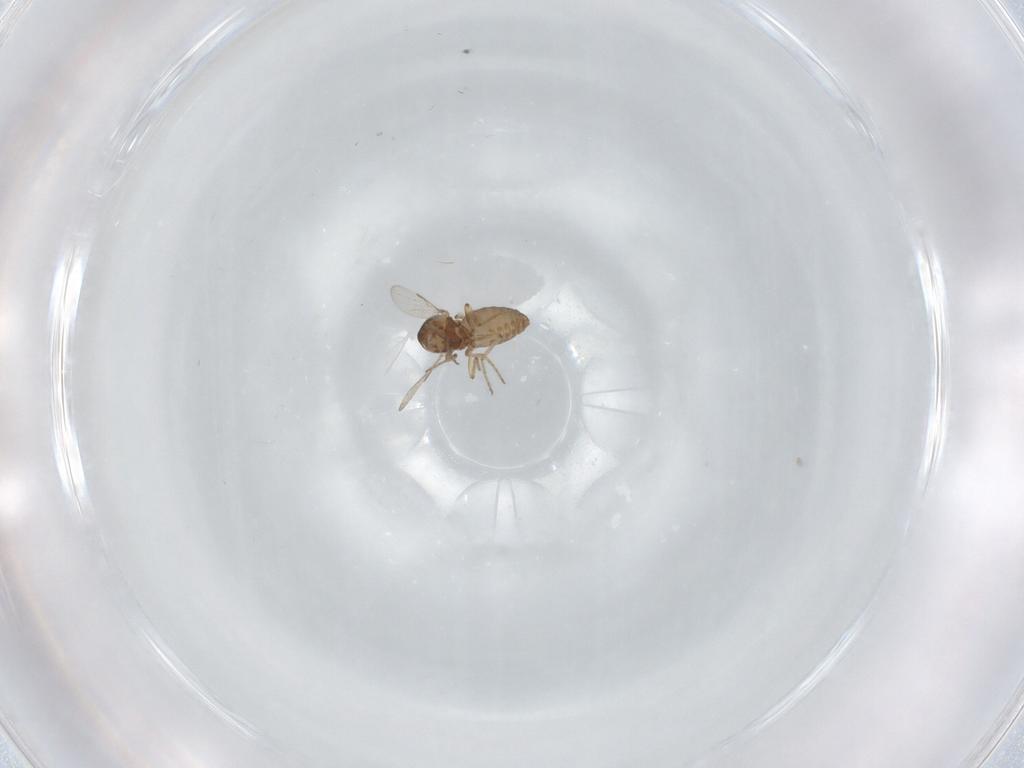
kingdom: Animalia
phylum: Arthropoda
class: Insecta
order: Diptera
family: Ceratopogonidae
